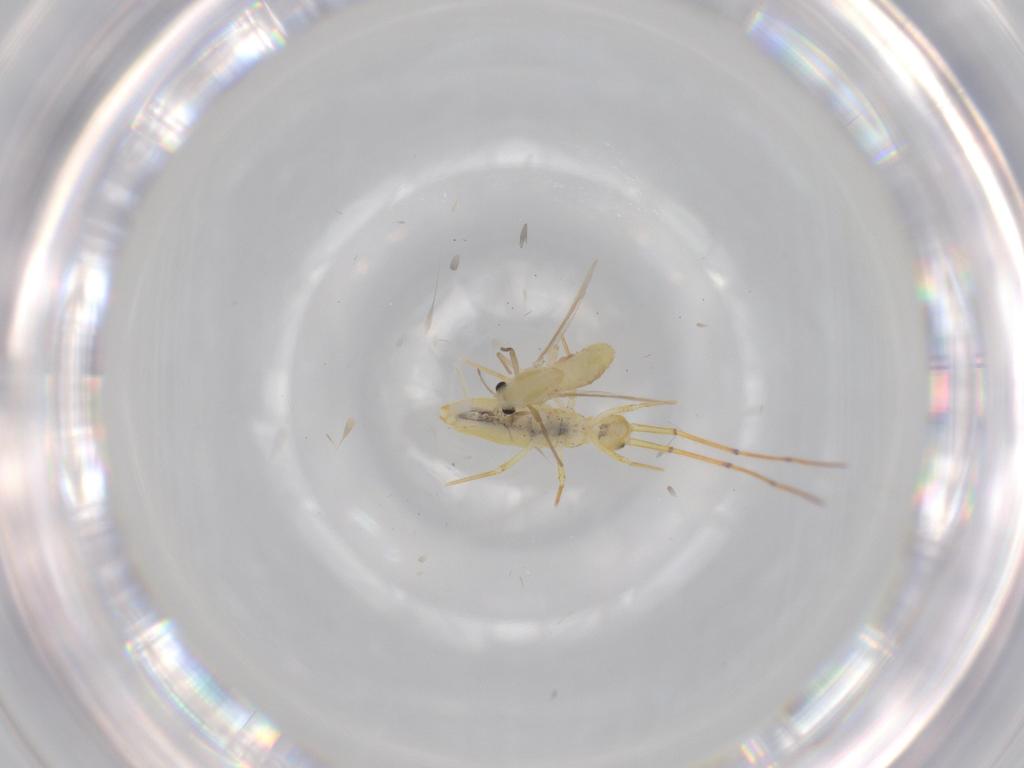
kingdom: Animalia
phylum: Arthropoda
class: Insecta
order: Diptera
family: Chironomidae
